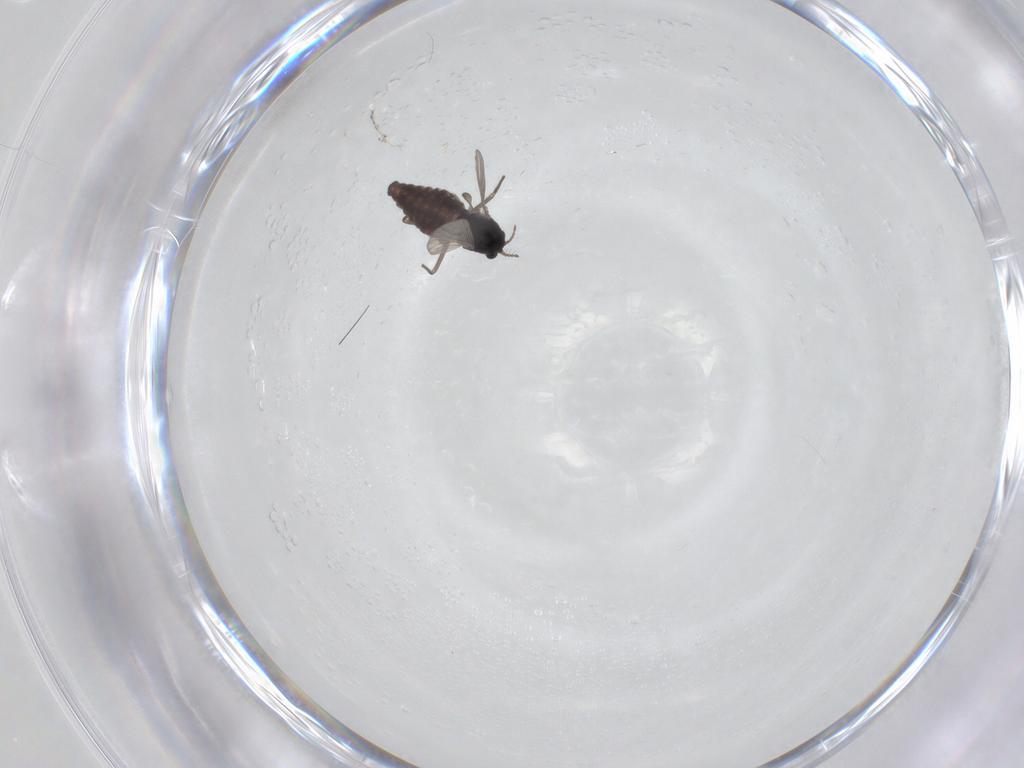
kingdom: Animalia
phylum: Arthropoda
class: Insecta
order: Diptera
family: Chironomidae
